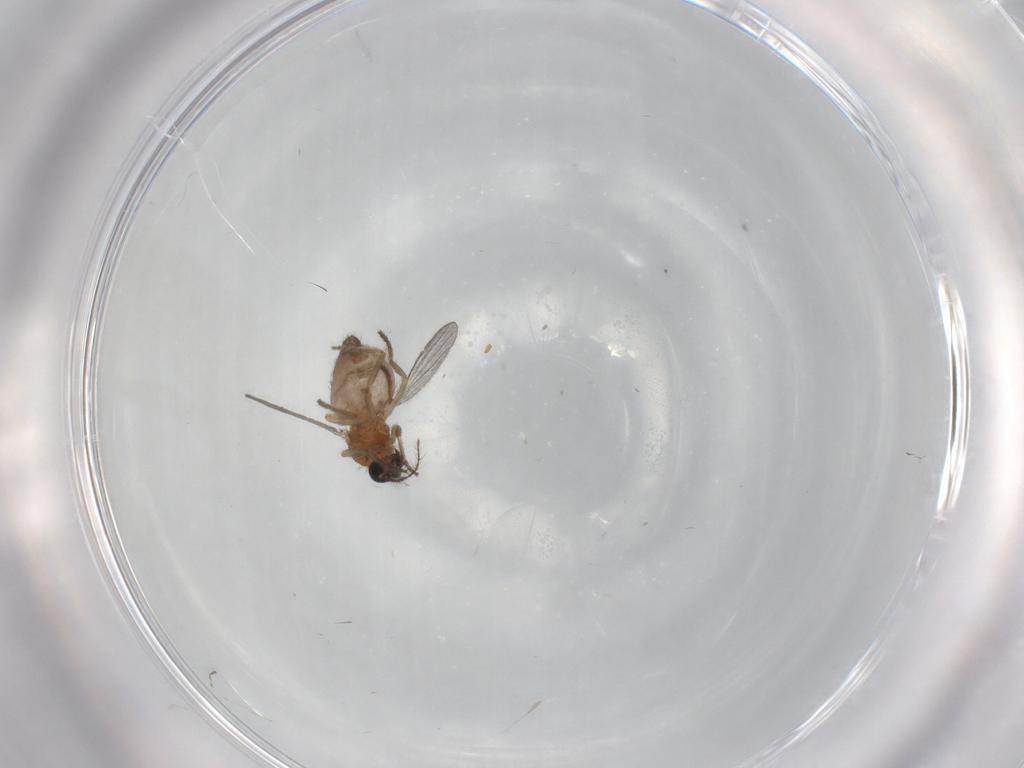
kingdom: Animalia
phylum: Arthropoda
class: Insecta
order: Diptera
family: Ceratopogonidae
